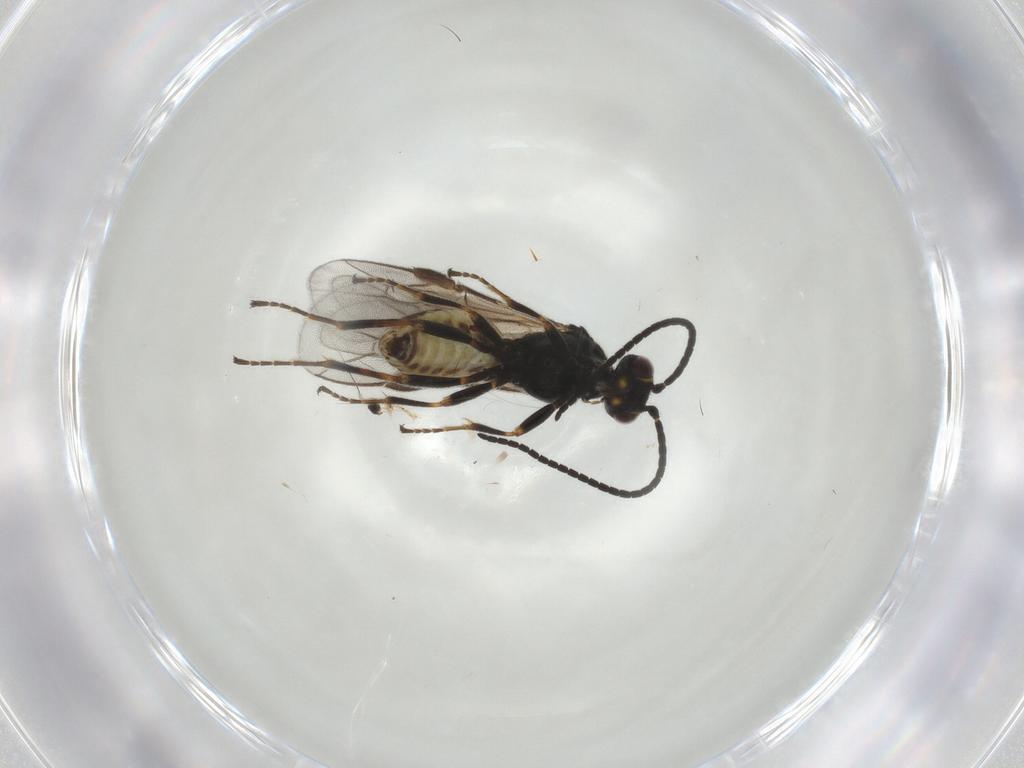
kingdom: Animalia
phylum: Arthropoda
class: Insecta
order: Hymenoptera
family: Braconidae
